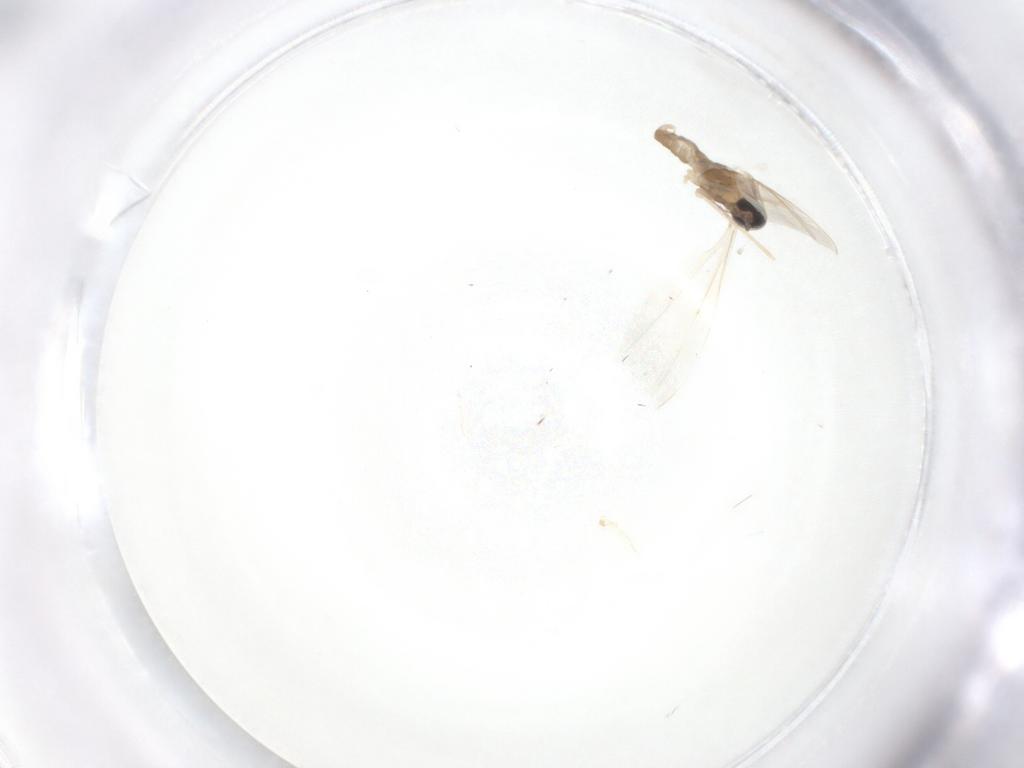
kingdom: Animalia
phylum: Arthropoda
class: Insecta
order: Diptera
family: Cecidomyiidae
